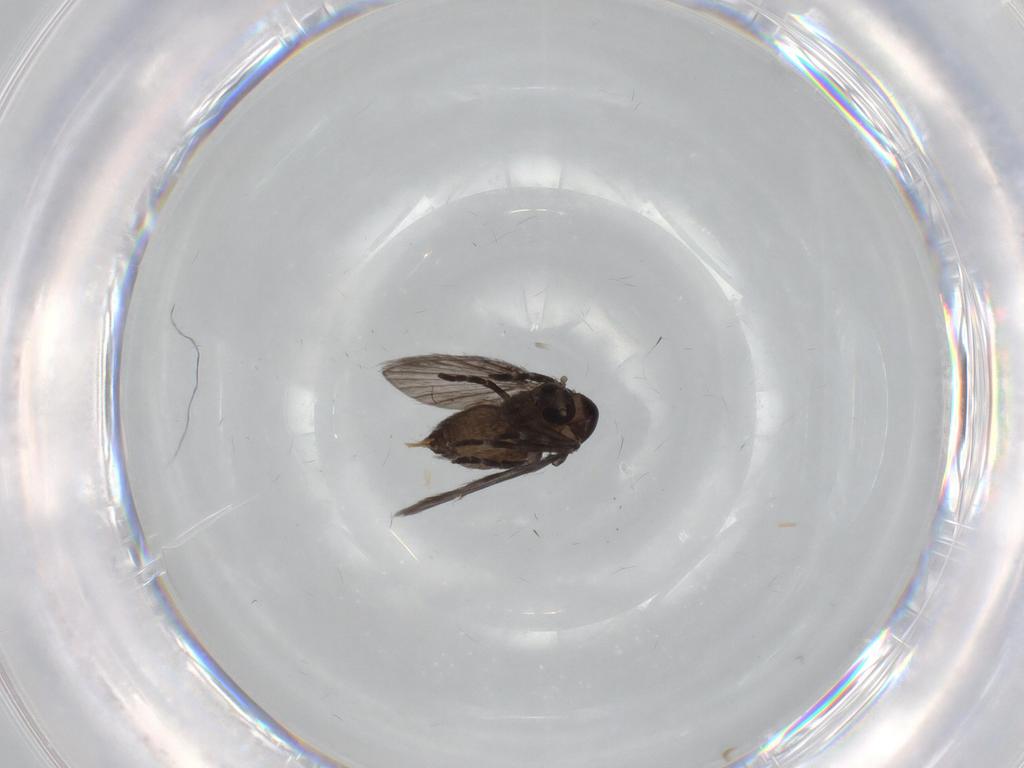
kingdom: Animalia
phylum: Arthropoda
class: Insecta
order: Diptera
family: Psychodidae
